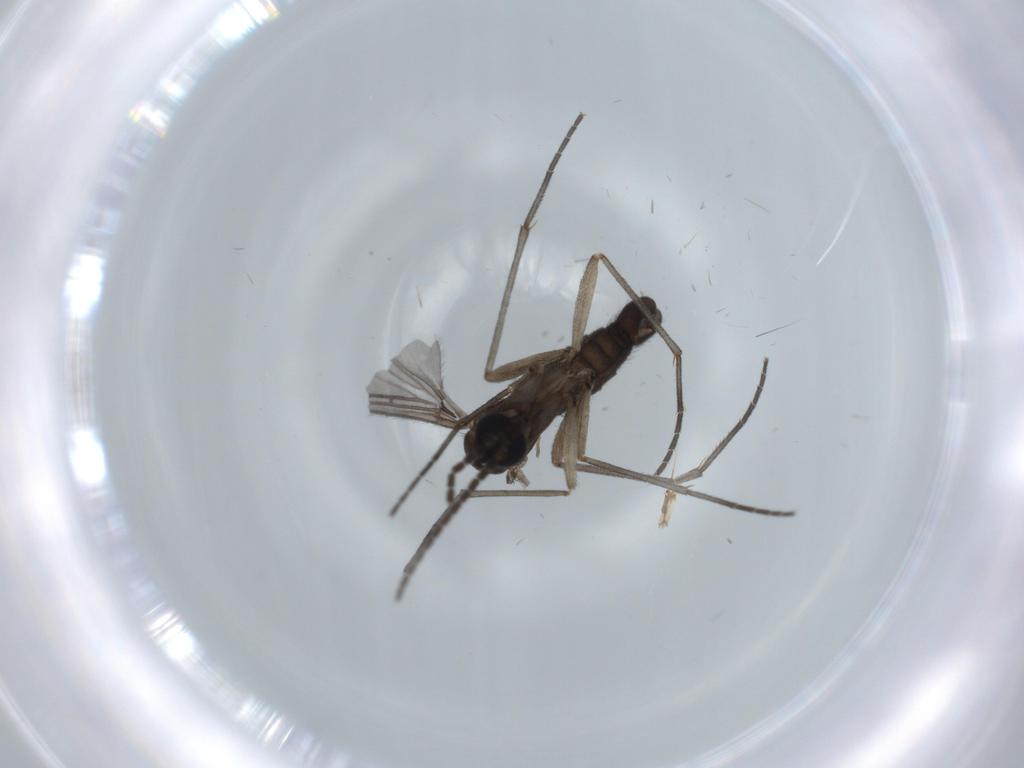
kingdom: Animalia
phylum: Arthropoda
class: Insecta
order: Diptera
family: Sciaridae
